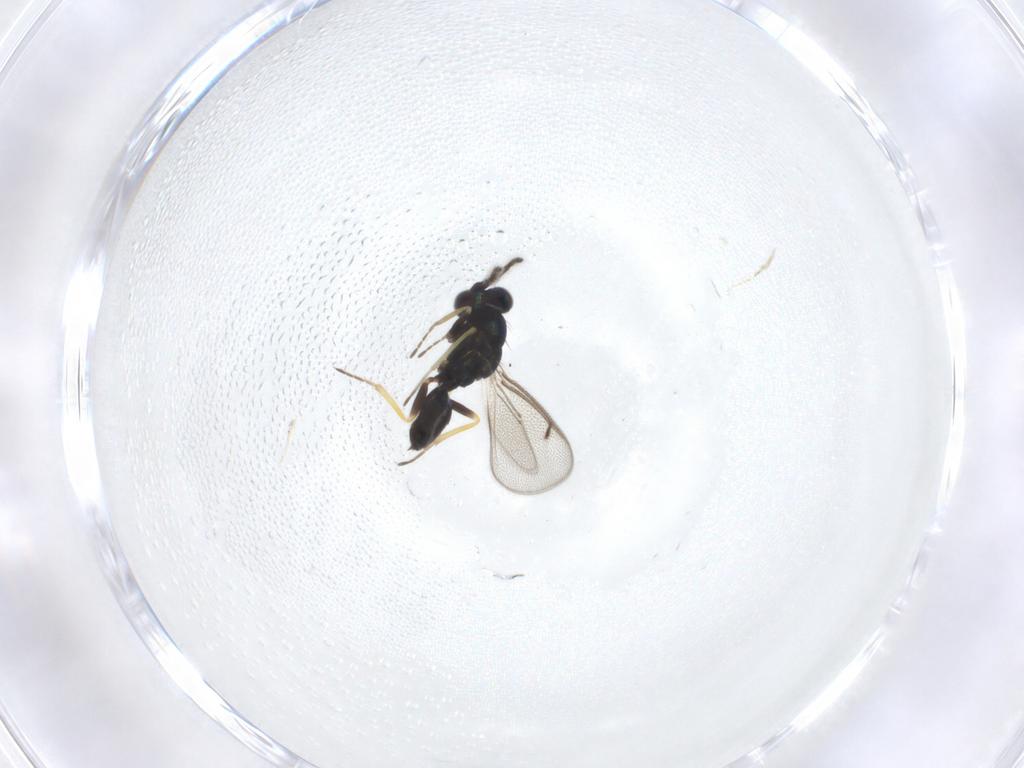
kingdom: Animalia
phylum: Arthropoda
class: Insecta
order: Hymenoptera
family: Eulophidae
